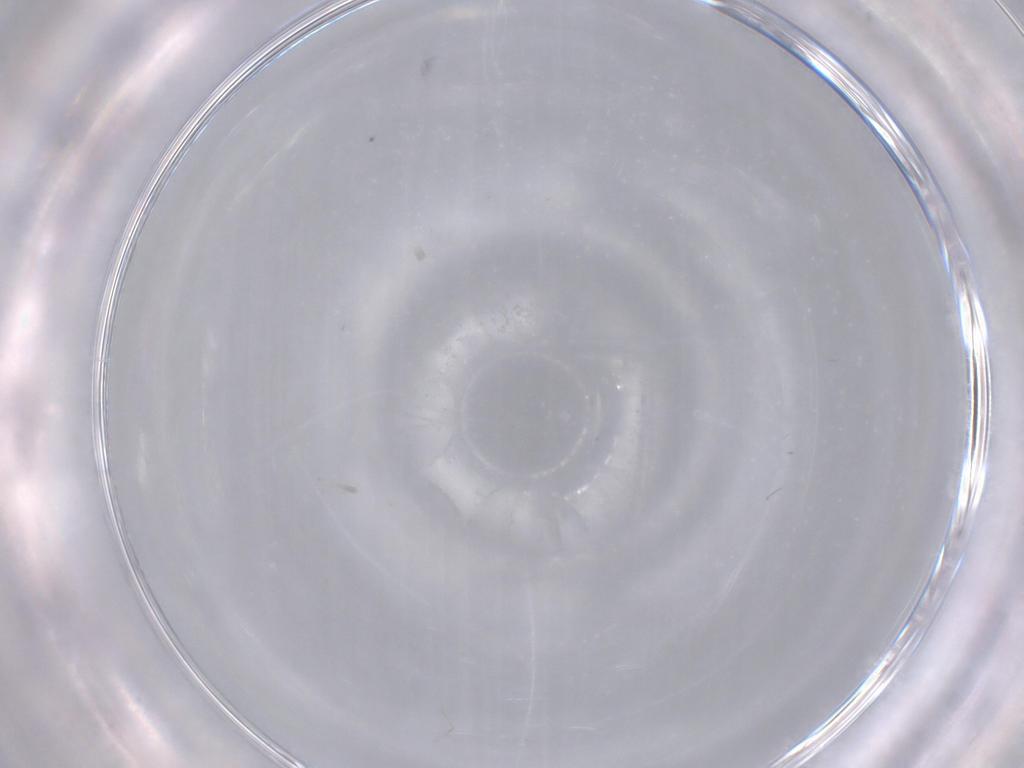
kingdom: Animalia
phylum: Arthropoda
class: Insecta
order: Diptera
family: Cecidomyiidae
